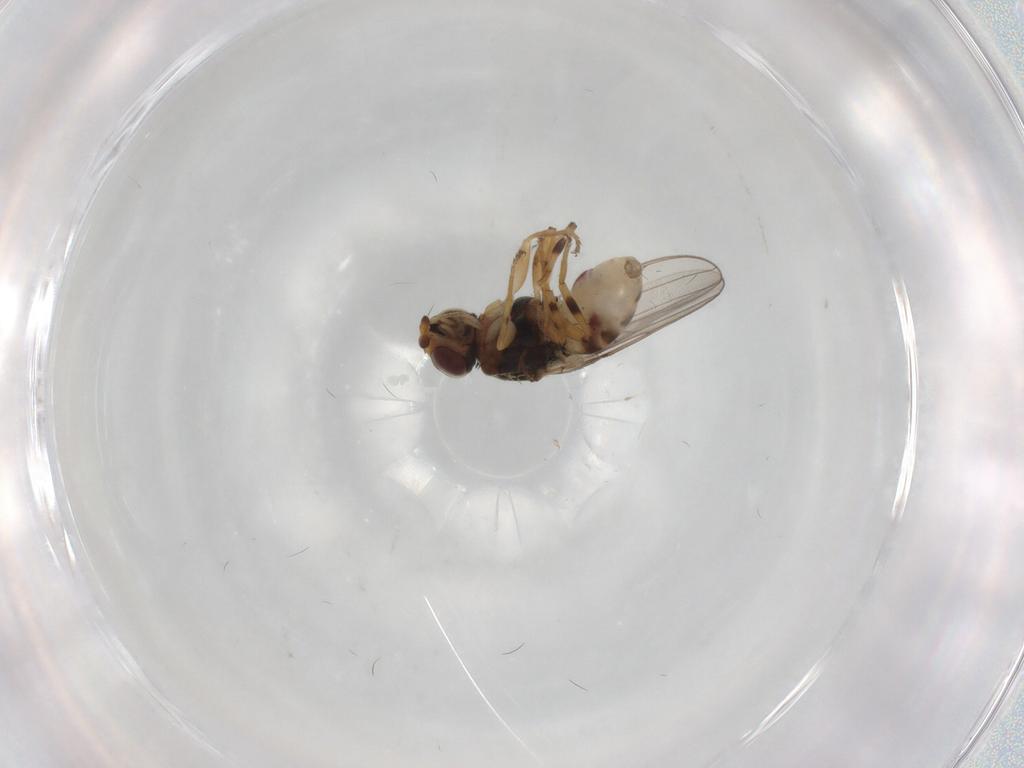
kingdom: Animalia
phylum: Arthropoda
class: Insecta
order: Diptera
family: Chloropidae
